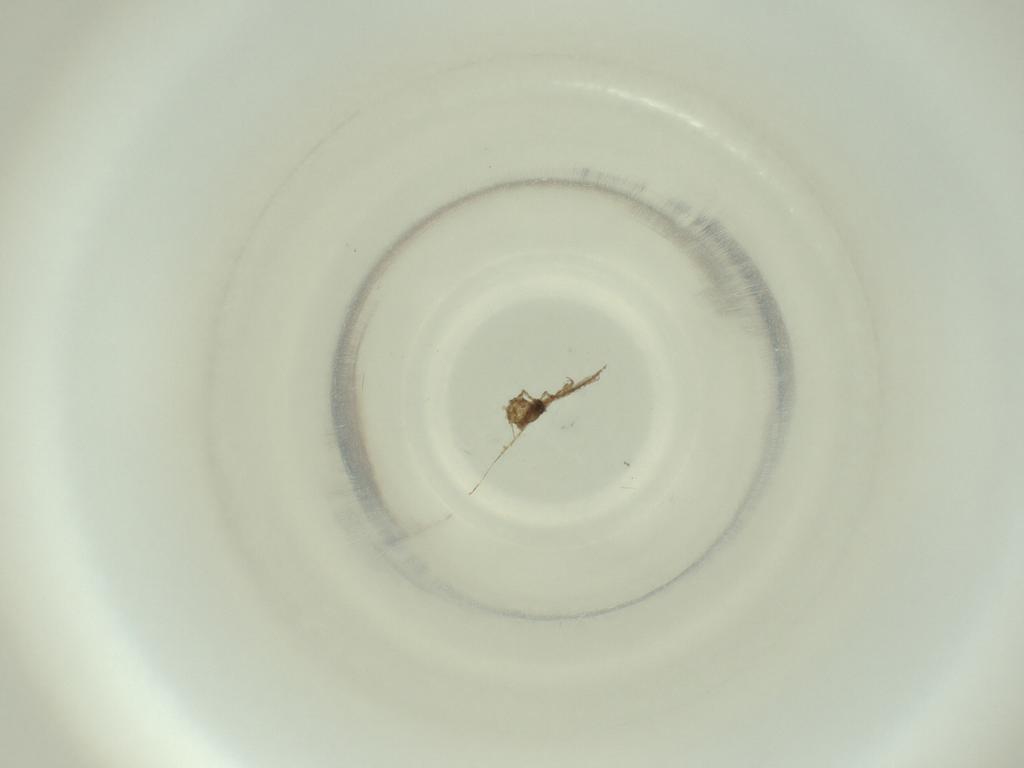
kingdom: Animalia
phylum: Arthropoda
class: Insecta
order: Diptera
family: Cecidomyiidae
